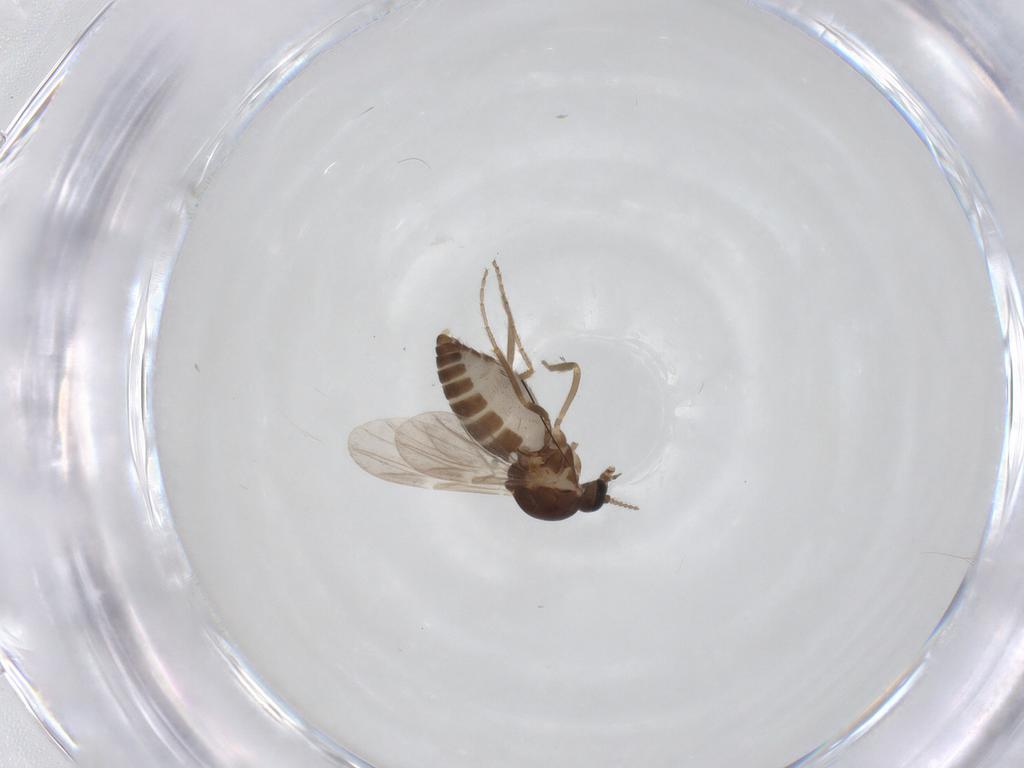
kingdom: Animalia
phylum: Arthropoda
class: Insecta
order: Diptera
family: Ceratopogonidae
